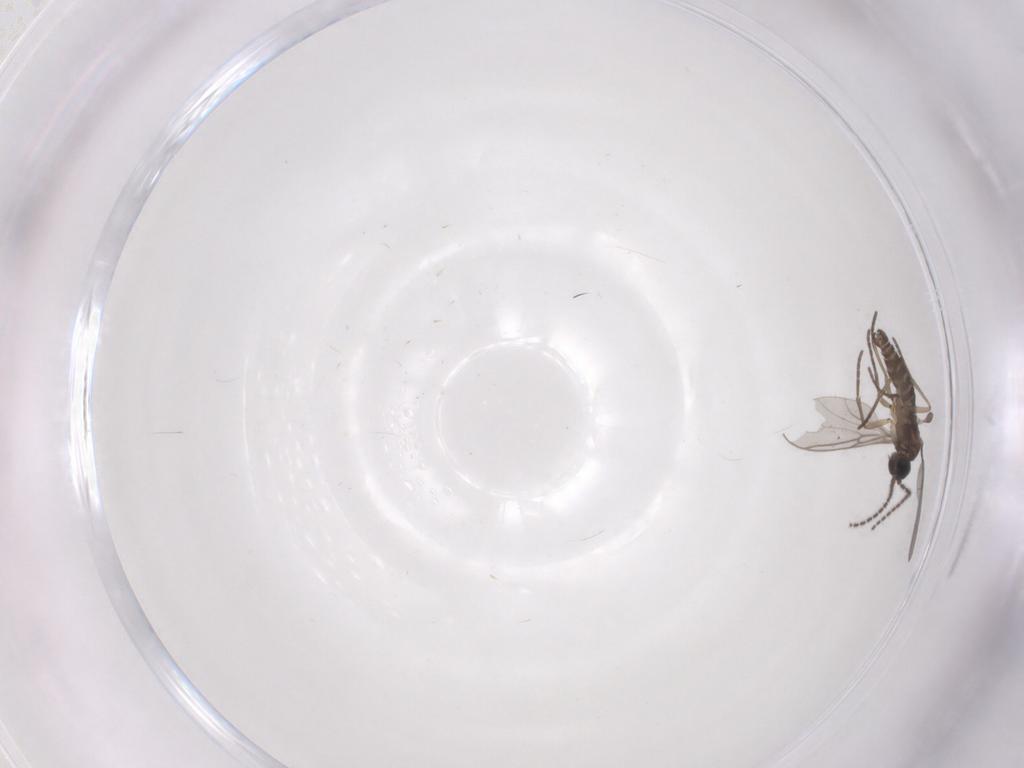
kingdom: Animalia
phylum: Arthropoda
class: Insecta
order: Diptera
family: Sciaridae
